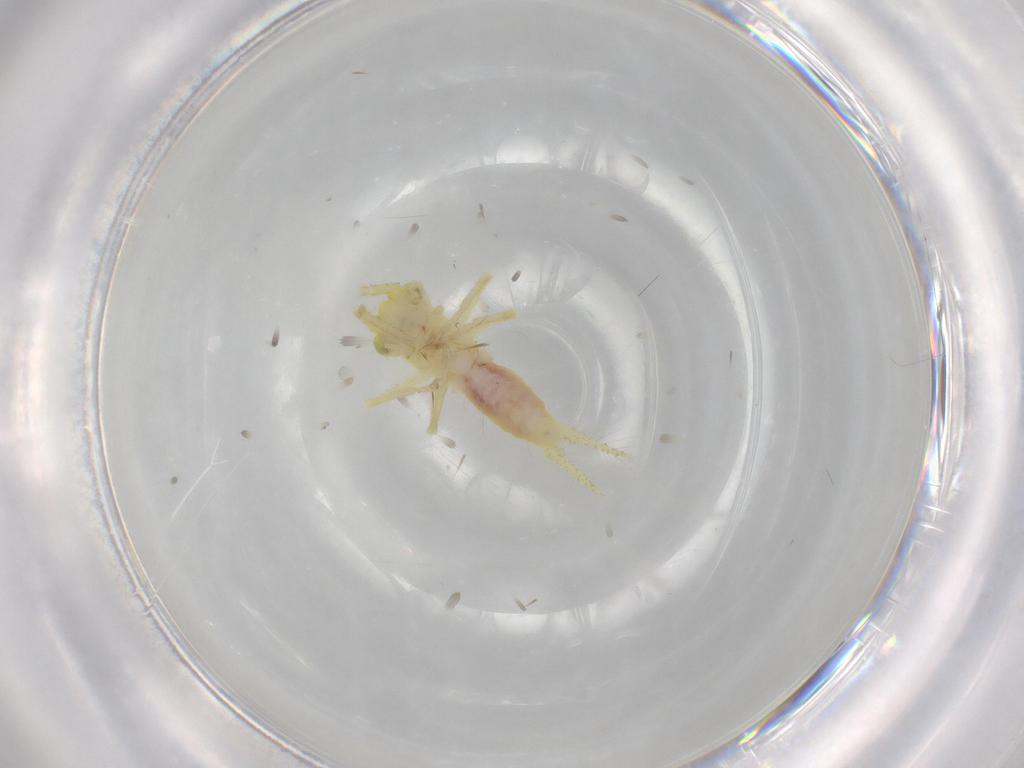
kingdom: Animalia
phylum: Arthropoda
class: Insecta
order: Orthoptera
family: Trigonidiidae
